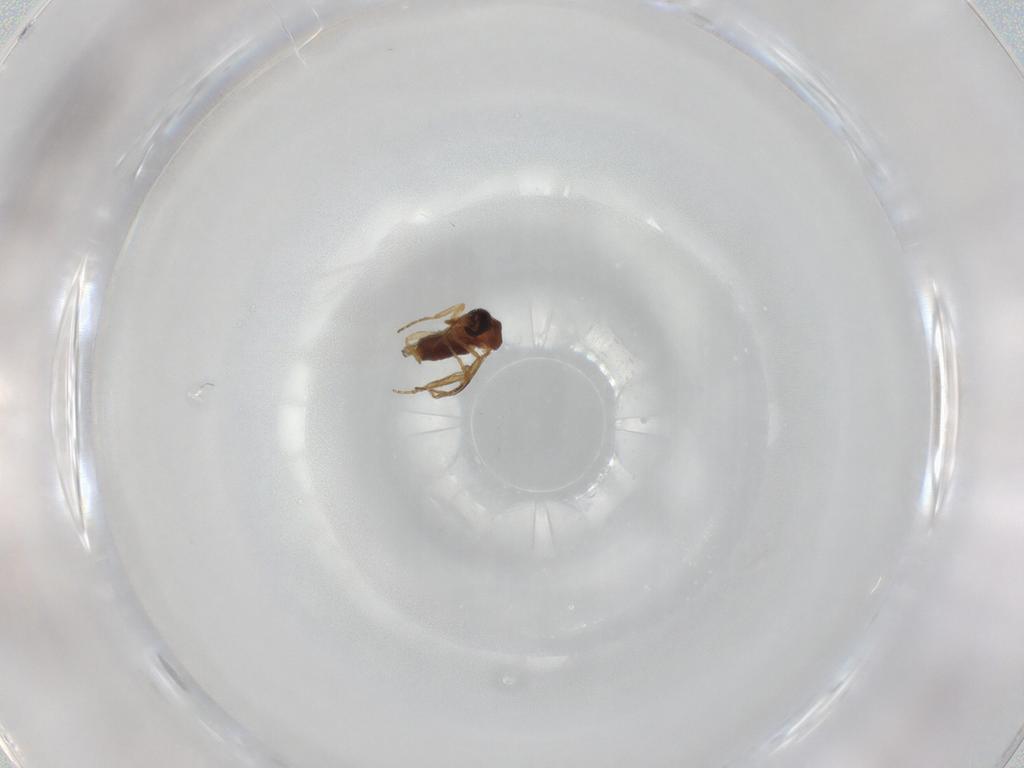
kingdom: Animalia
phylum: Arthropoda
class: Insecta
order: Diptera
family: Ceratopogonidae
